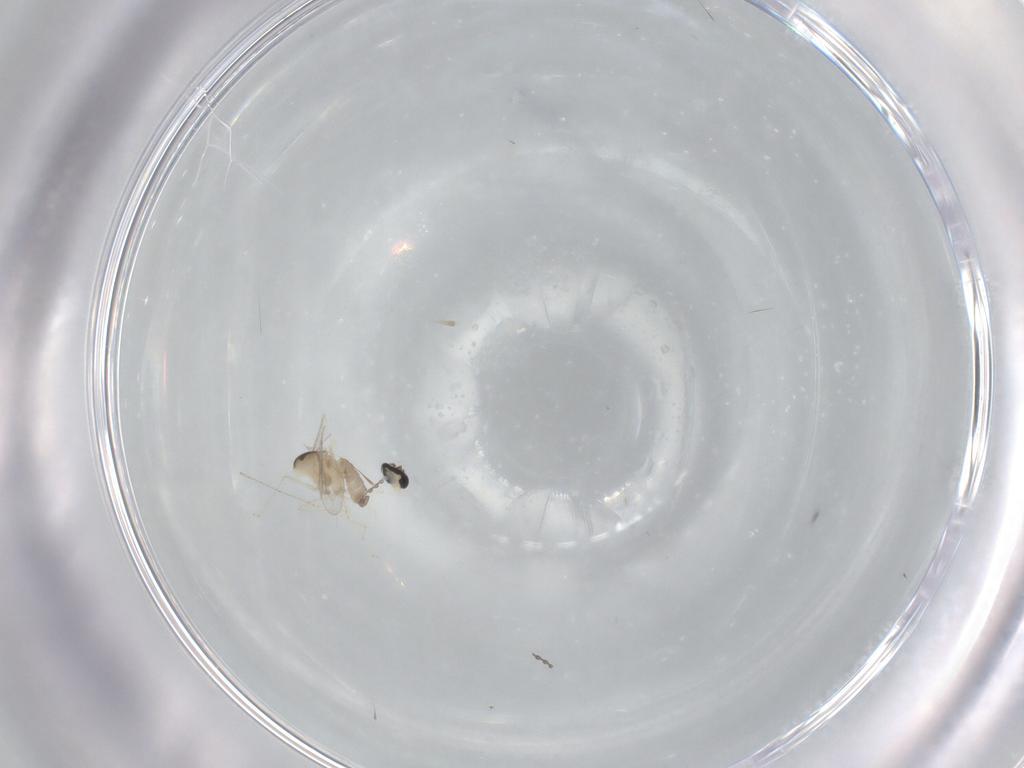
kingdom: Animalia
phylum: Arthropoda
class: Insecta
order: Diptera
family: Cecidomyiidae
